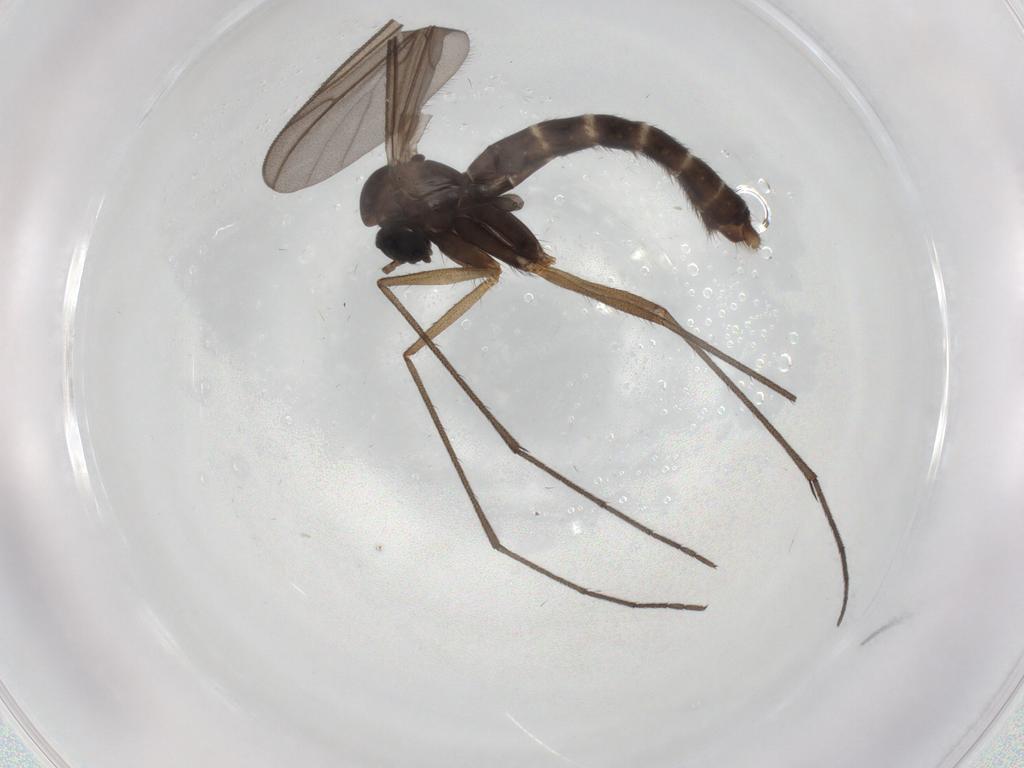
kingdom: Animalia
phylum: Arthropoda
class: Insecta
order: Diptera
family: Ditomyiidae
